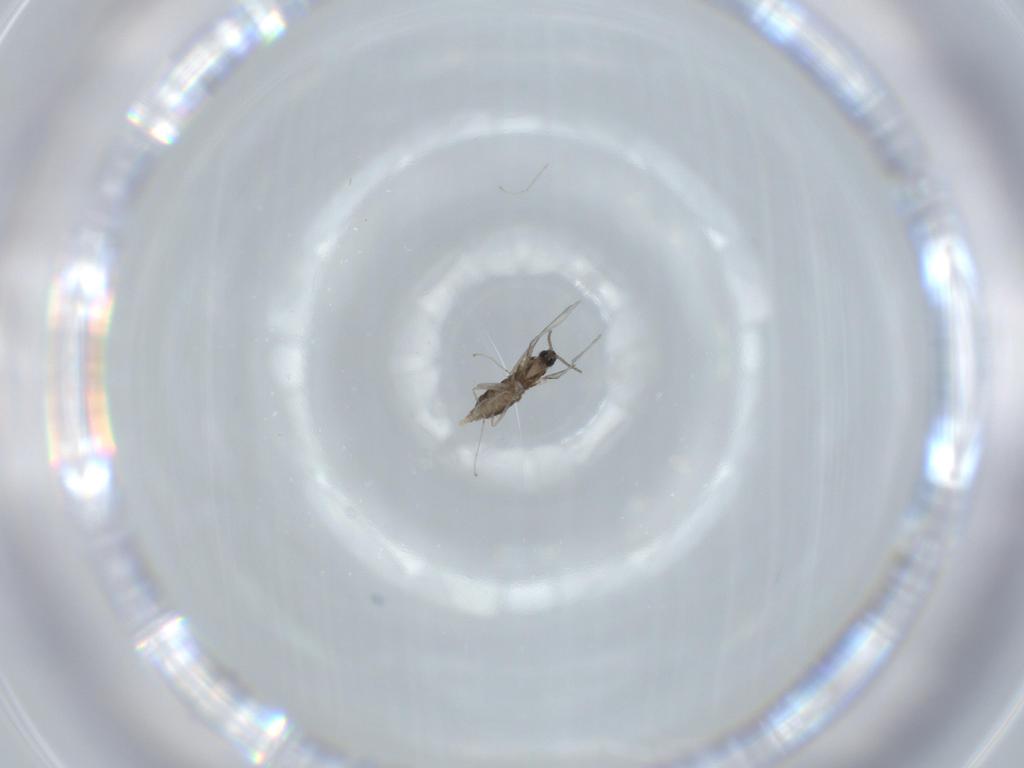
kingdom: Animalia
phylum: Arthropoda
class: Insecta
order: Diptera
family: Cecidomyiidae
